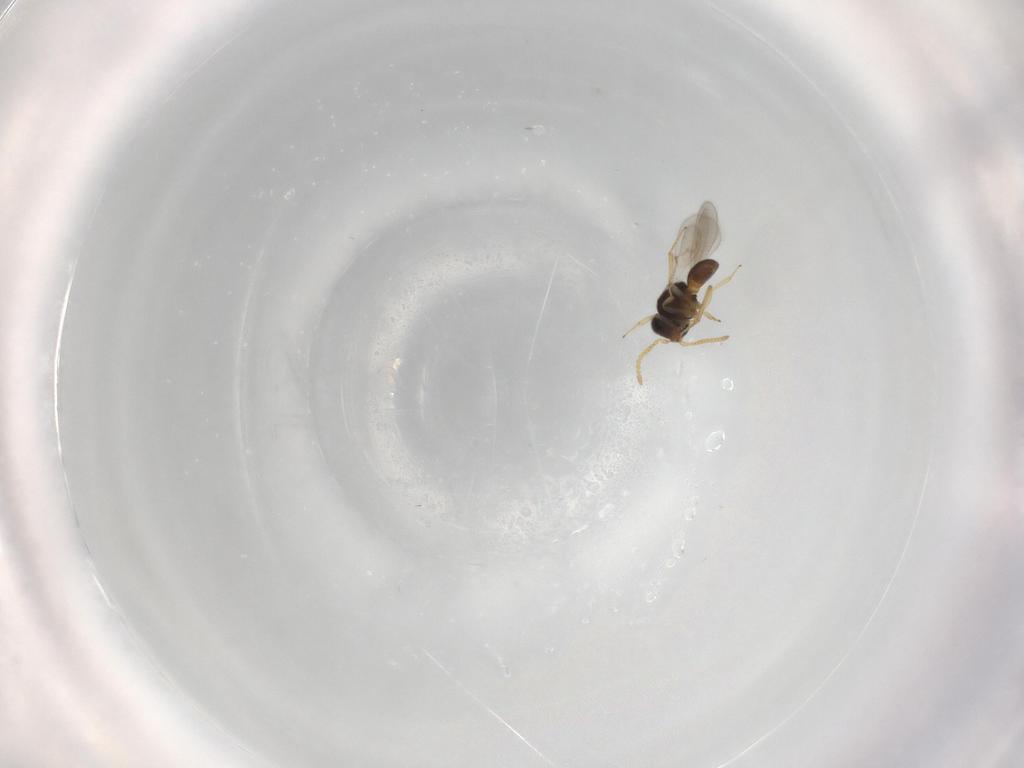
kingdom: Animalia
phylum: Arthropoda
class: Insecta
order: Hymenoptera
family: Scelionidae
